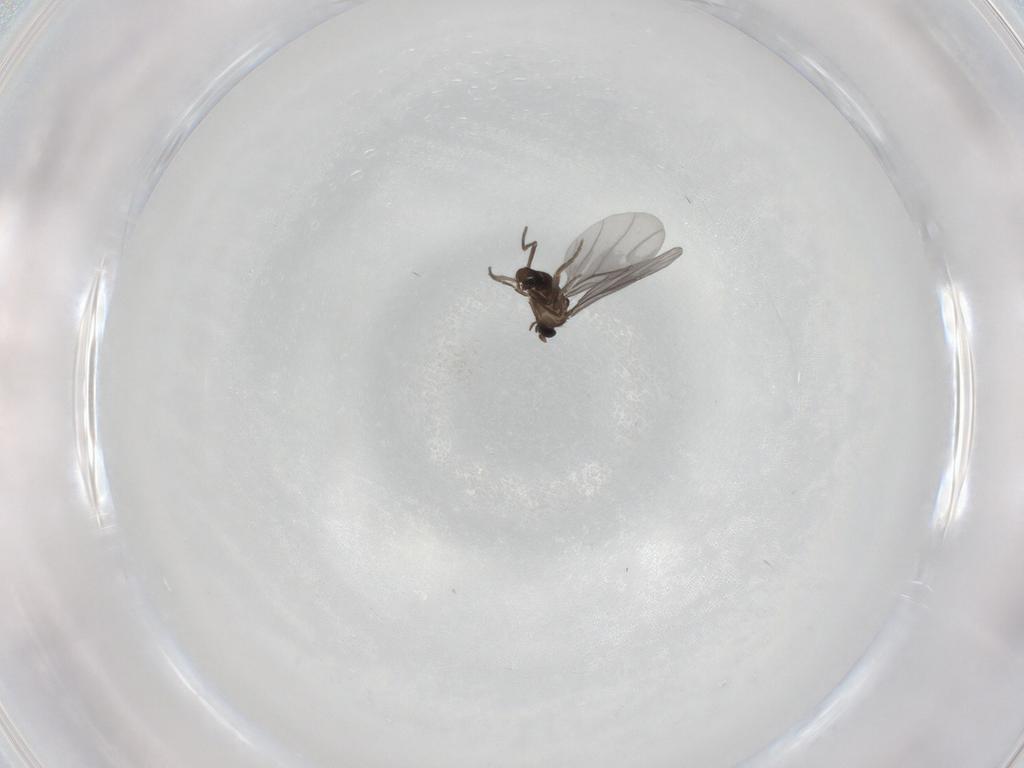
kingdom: Animalia
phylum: Arthropoda
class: Insecta
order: Diptera
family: Phoridae
